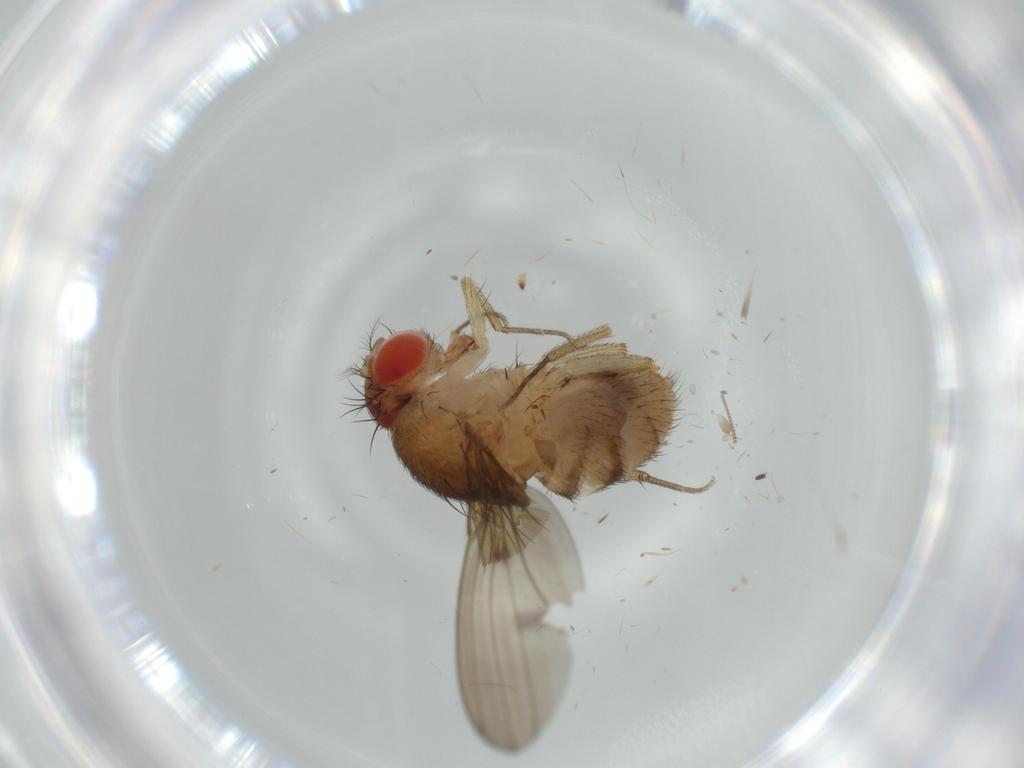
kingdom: Animalia
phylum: Arthropoda
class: Insecta
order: Diptera
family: Drosophilidae
